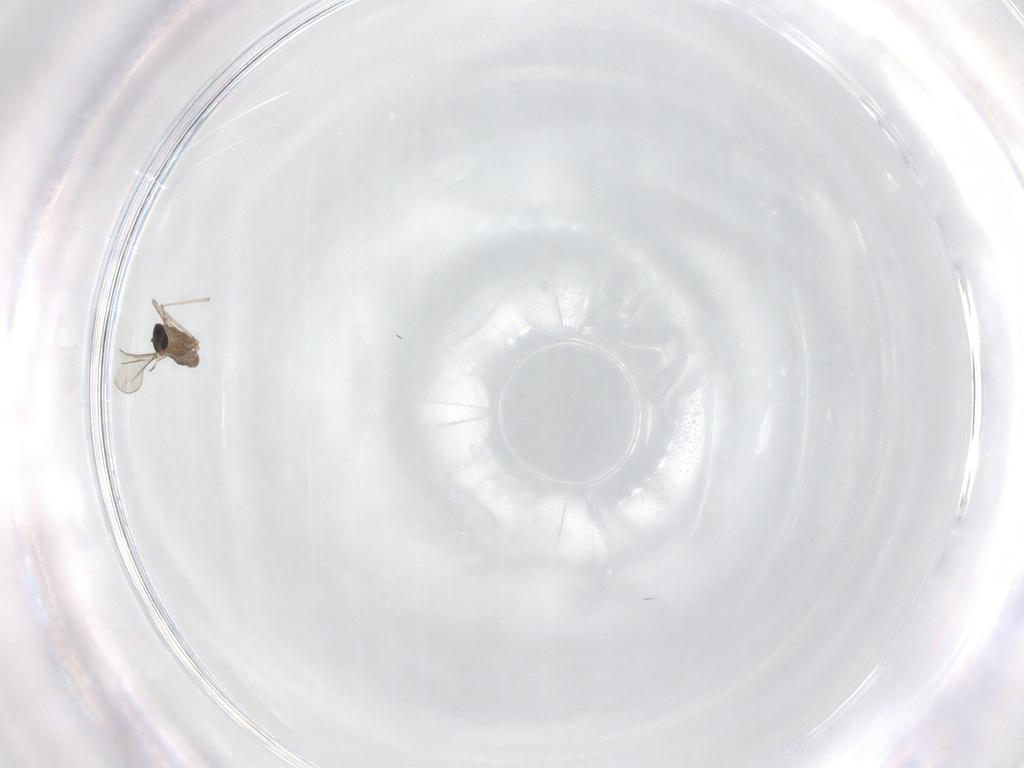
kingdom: Animalia
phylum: Arthropoda
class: Insecta
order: Diptera
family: Cecidomyiidae
